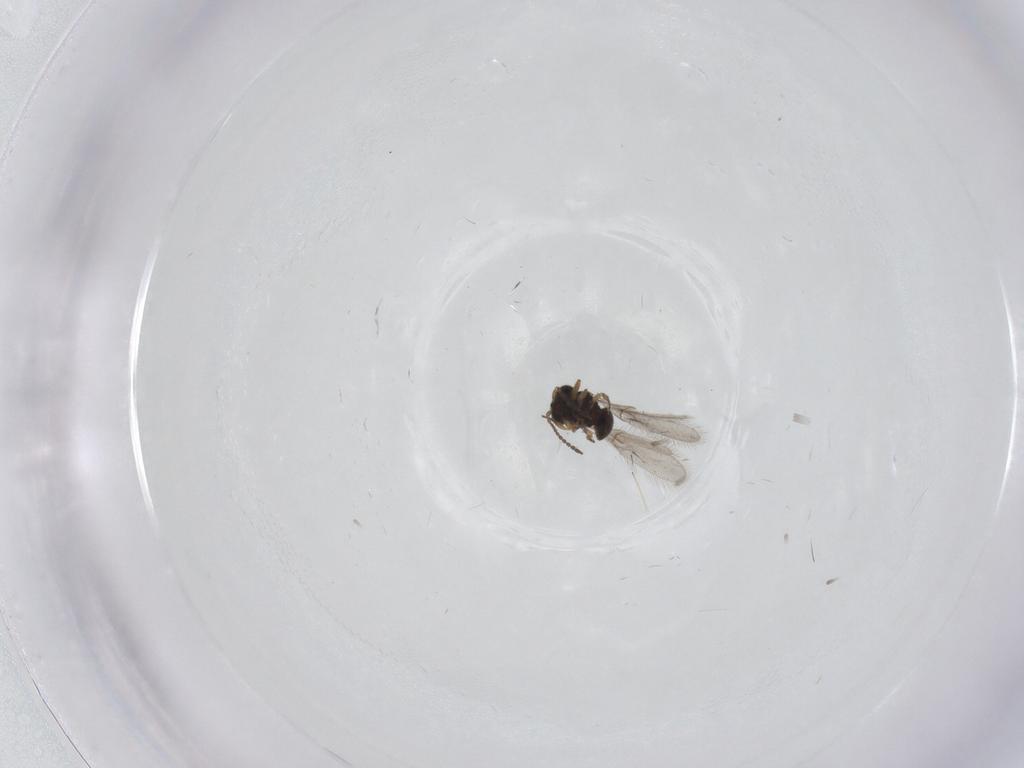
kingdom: Animalia
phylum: Arthropoda
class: Insecta
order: Hymenoptera
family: Scelionidae
